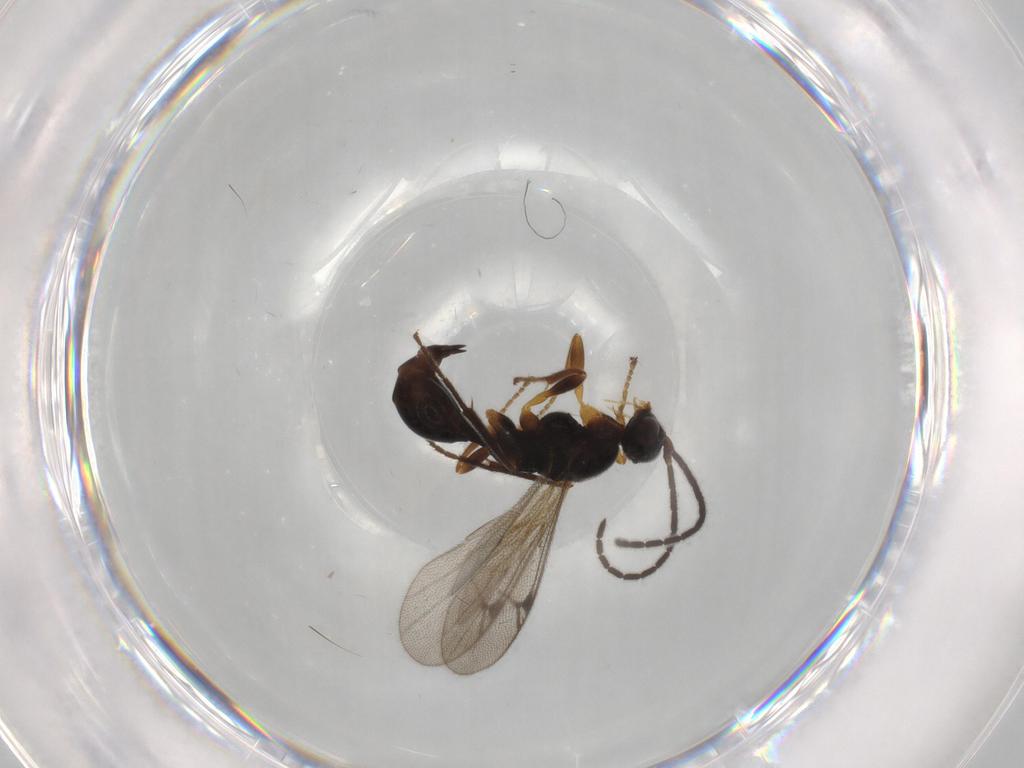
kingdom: Animalia
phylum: Arthropoda
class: Insecta
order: Hymenoptera
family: Proctotrupidae
